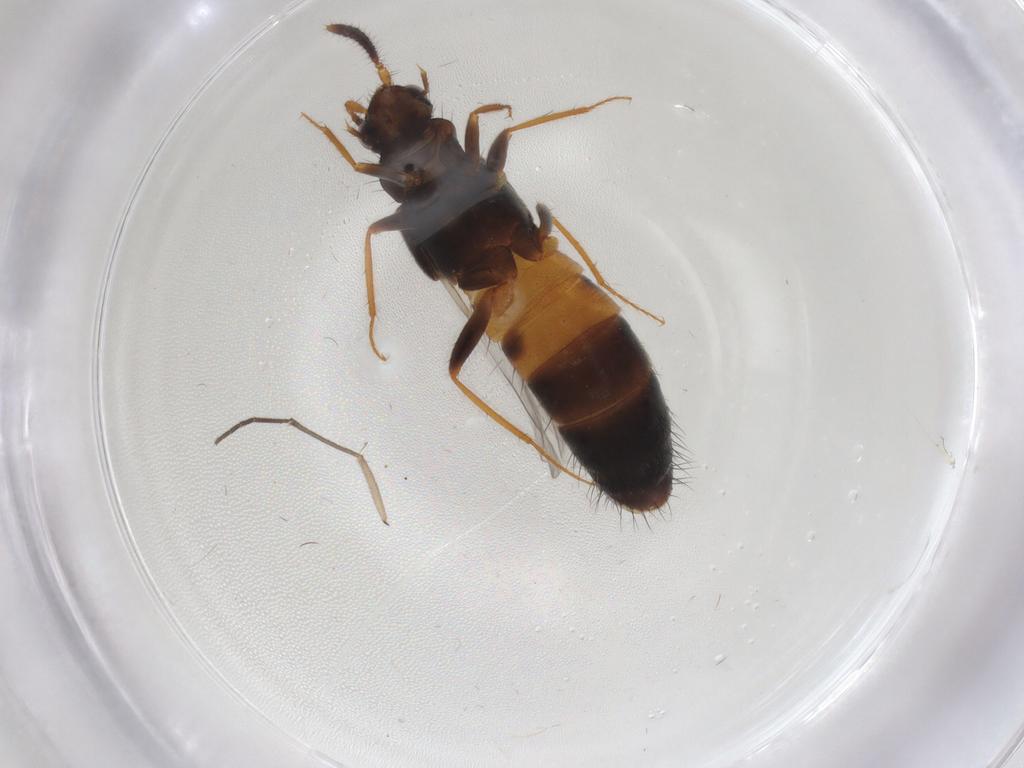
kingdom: Animalia
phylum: Arthropoda
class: Insecta
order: Coleoptera
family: Staphylinidae
